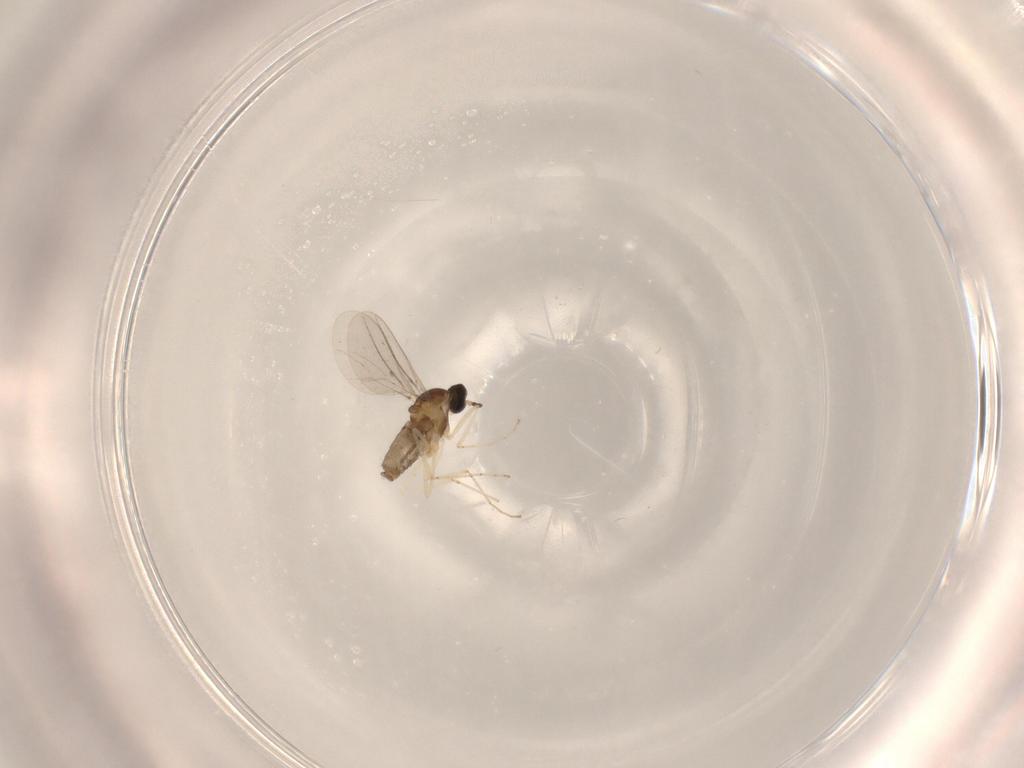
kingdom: Animalia
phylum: Arthropoda
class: Insecta
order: Diptera
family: Cecidomyiidae
